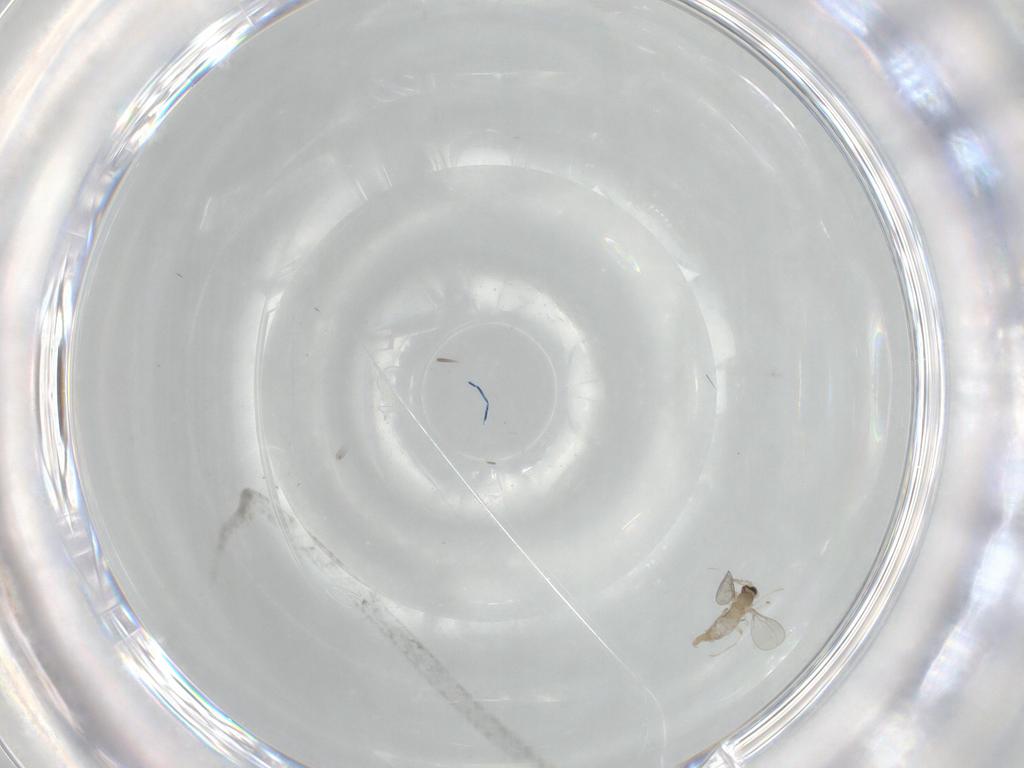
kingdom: Animalia
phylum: Arthropoda
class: Insecta
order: Diptera
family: Cecidomyiidae
